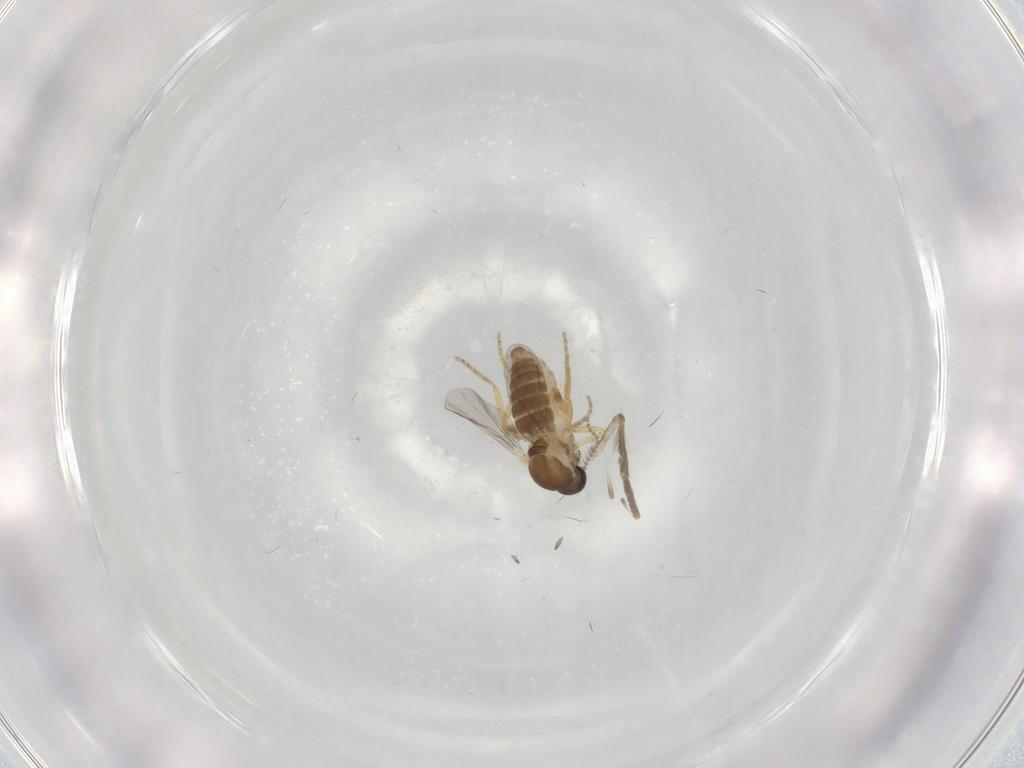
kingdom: Animalia
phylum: Arthropoda
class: Insecta
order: Diptera
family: Ceratopogonidae
